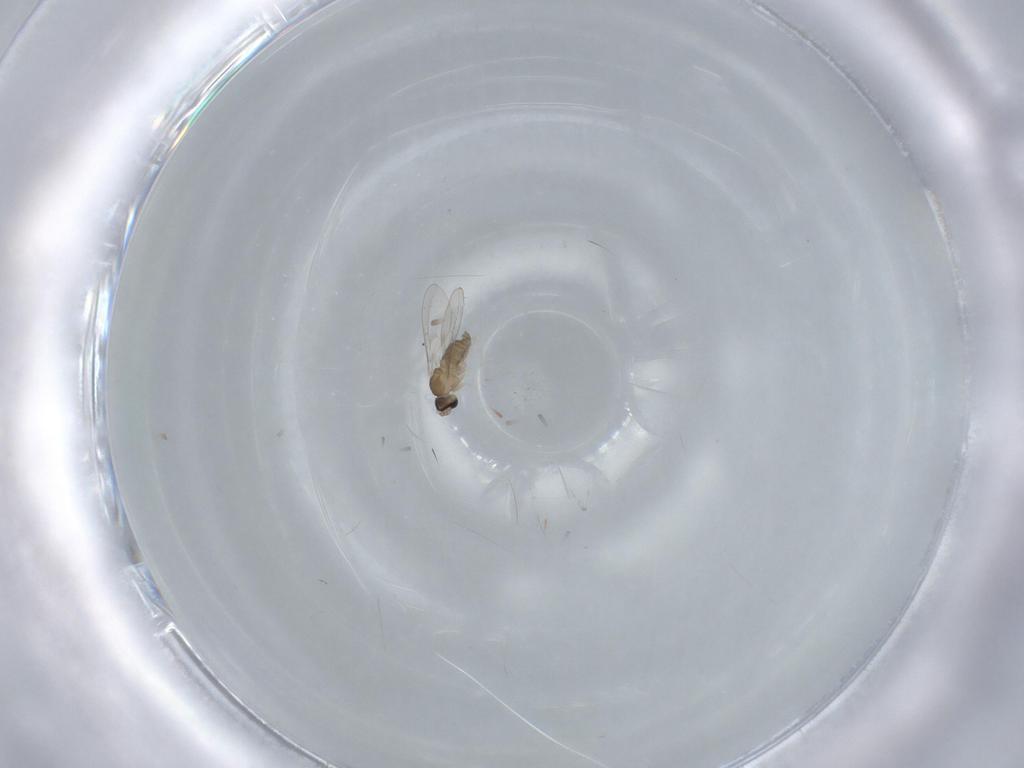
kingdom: Animalia
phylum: Arthropoda
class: Insecta
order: Diptera
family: Cecidomyiidae
